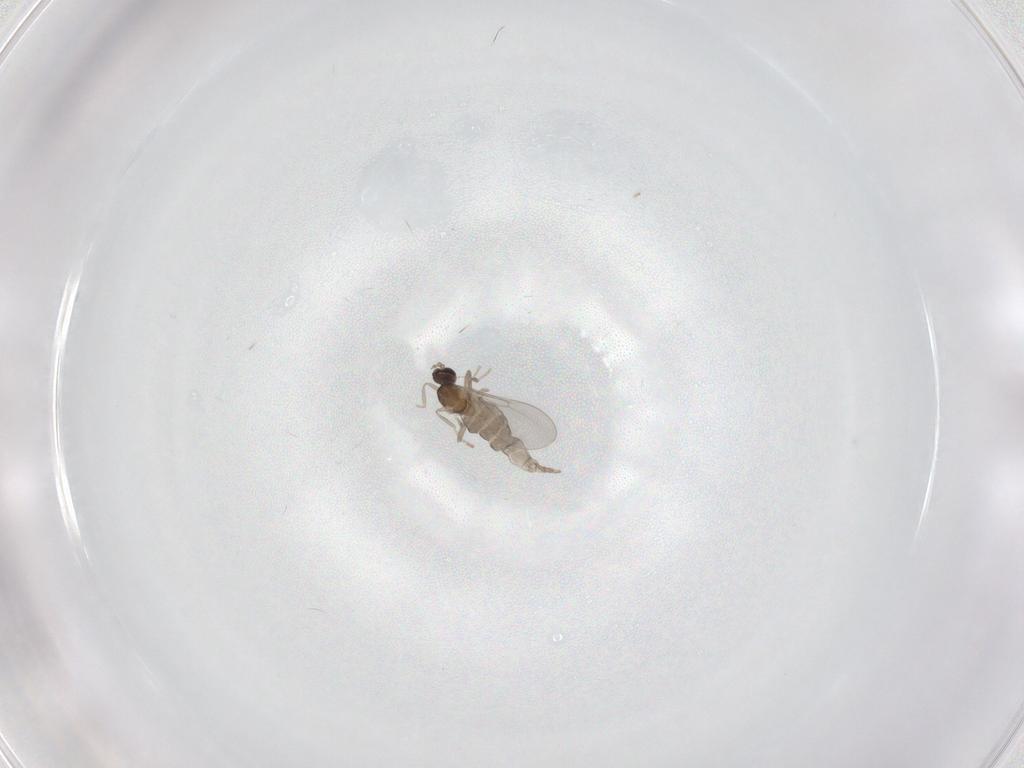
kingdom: Animalia
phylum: Arthropoda
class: Insecta
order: Diptera
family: Cecidomyiidae
